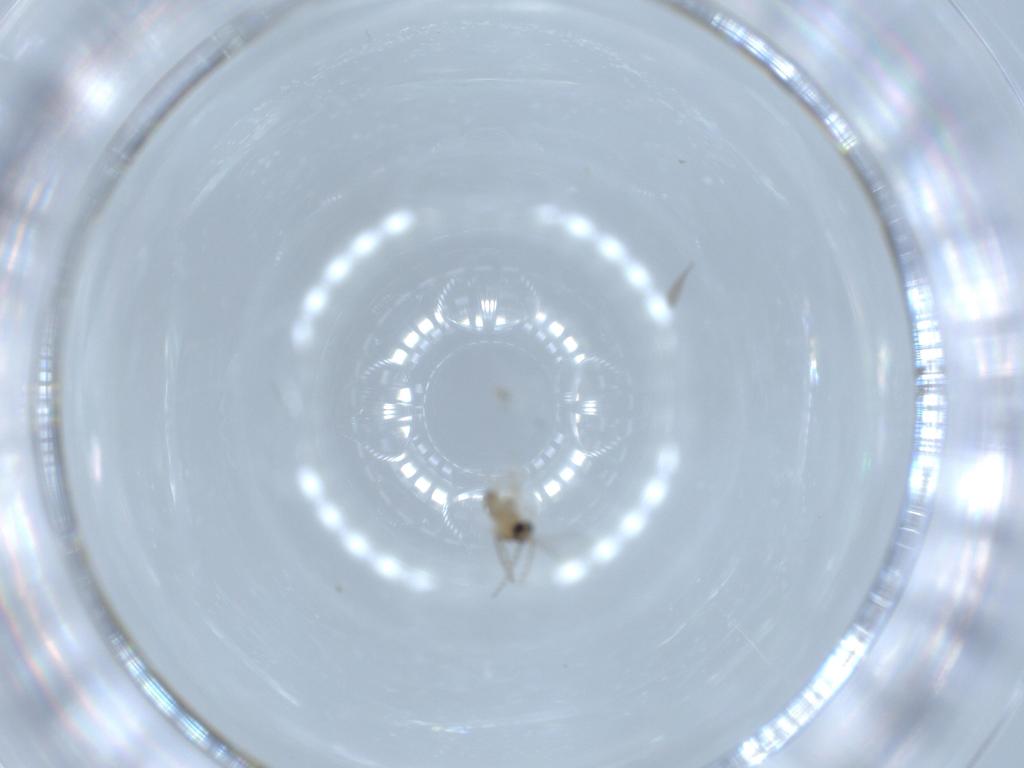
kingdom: Animalia
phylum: Arthropoda
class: Insecta
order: Diptera
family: Cecidomyiidae
